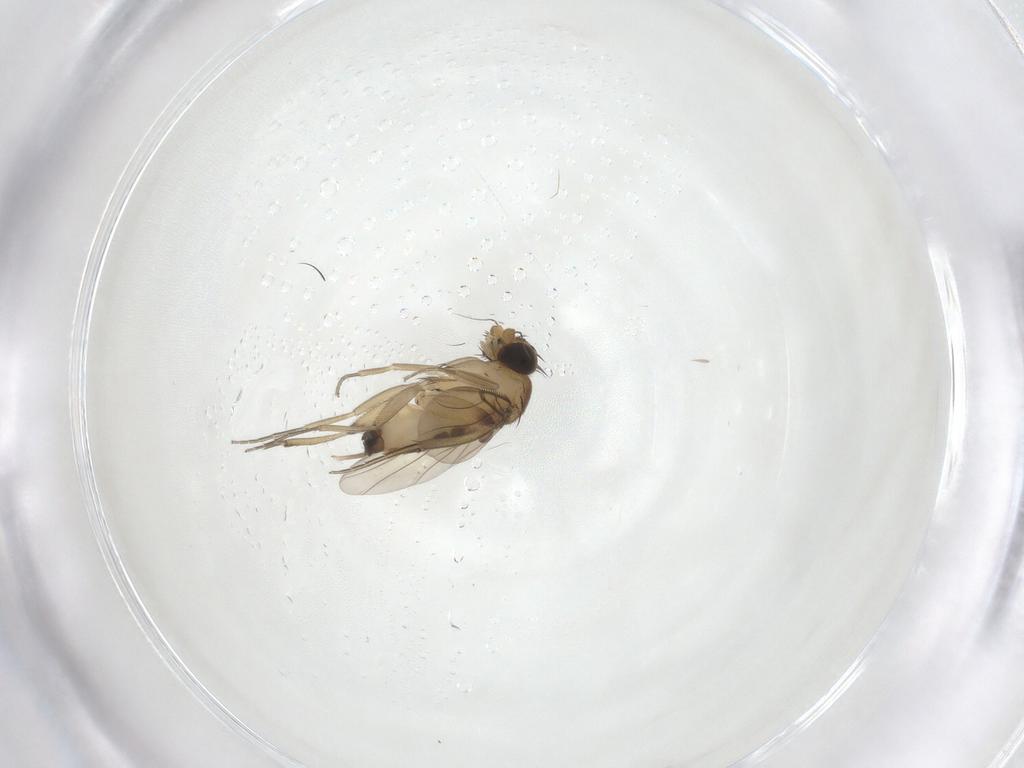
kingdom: Animalia
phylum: Arthropoda
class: Insecta
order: Diptera
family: Phoridae
